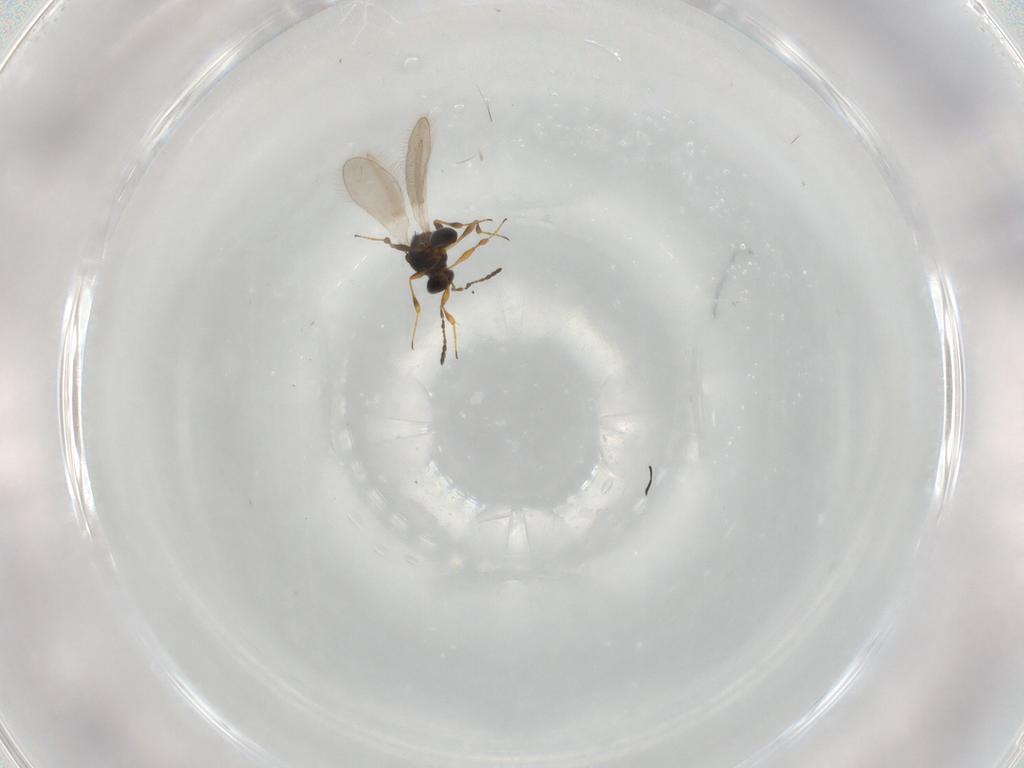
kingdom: Animalia
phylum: Arthropoda
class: Insecta
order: Hymenoptera
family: Platygastridae
